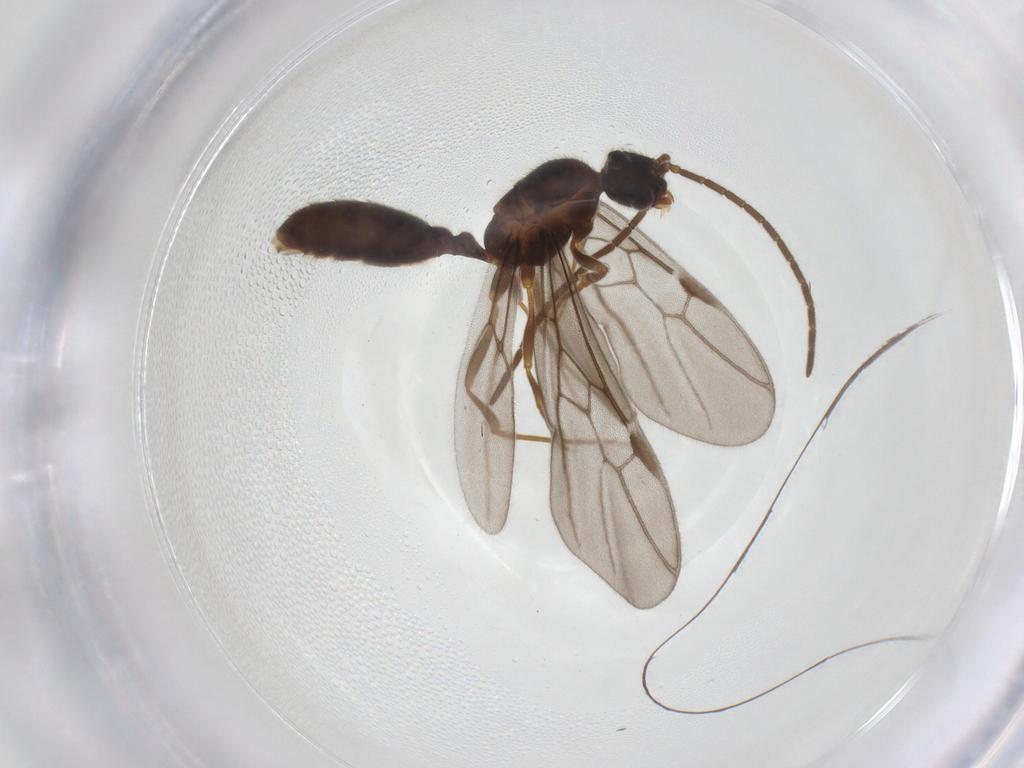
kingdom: Animalia
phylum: Arthropoda
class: Insecta
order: Hymenoptera
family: Formicidae
